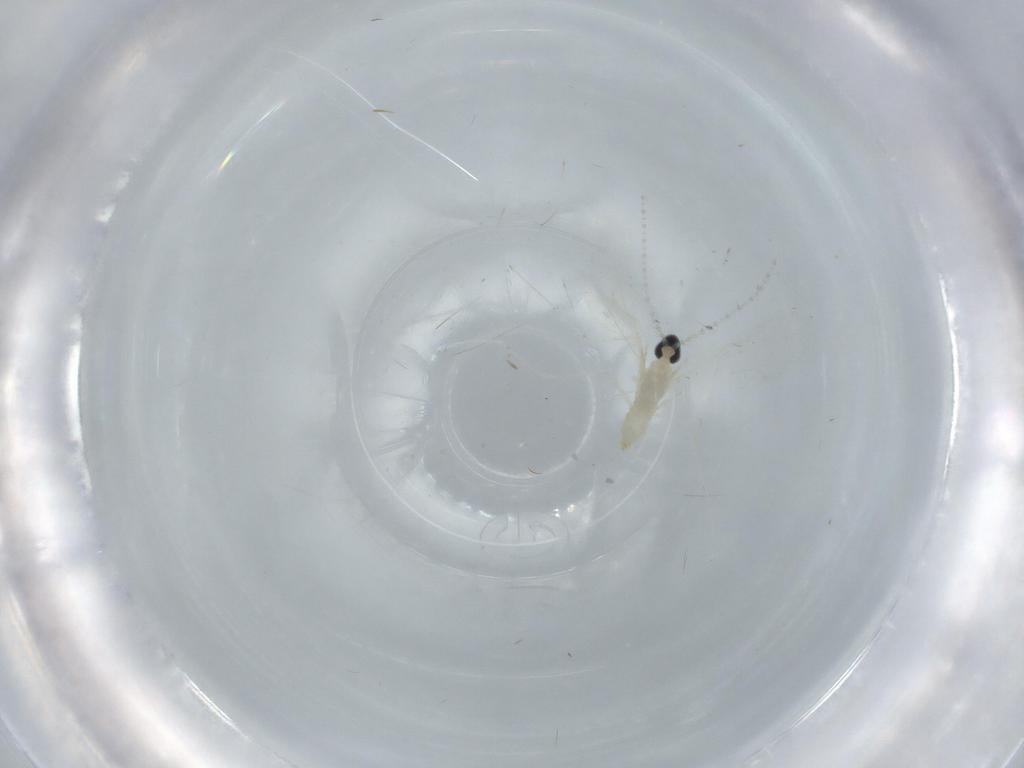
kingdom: Animalia
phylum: Arthropoda
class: Insecta
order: Diptera
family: Cecidomyiidae
